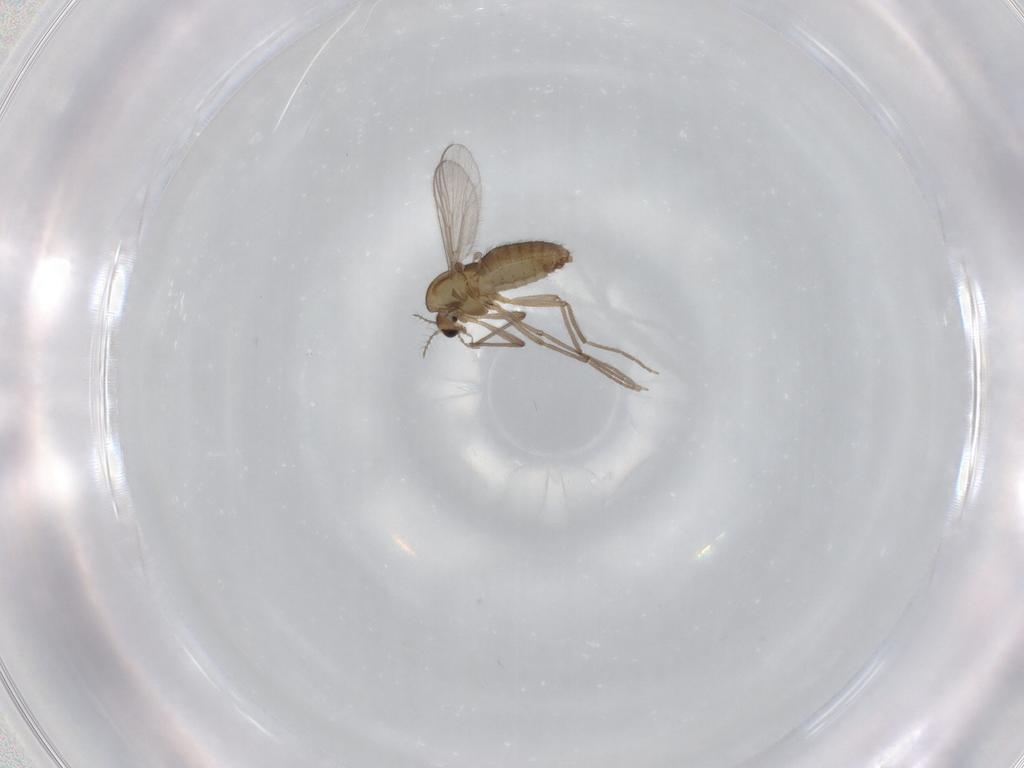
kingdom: Animalia
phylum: Arthropoda
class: Insecta
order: Diptera
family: Chironomidae
